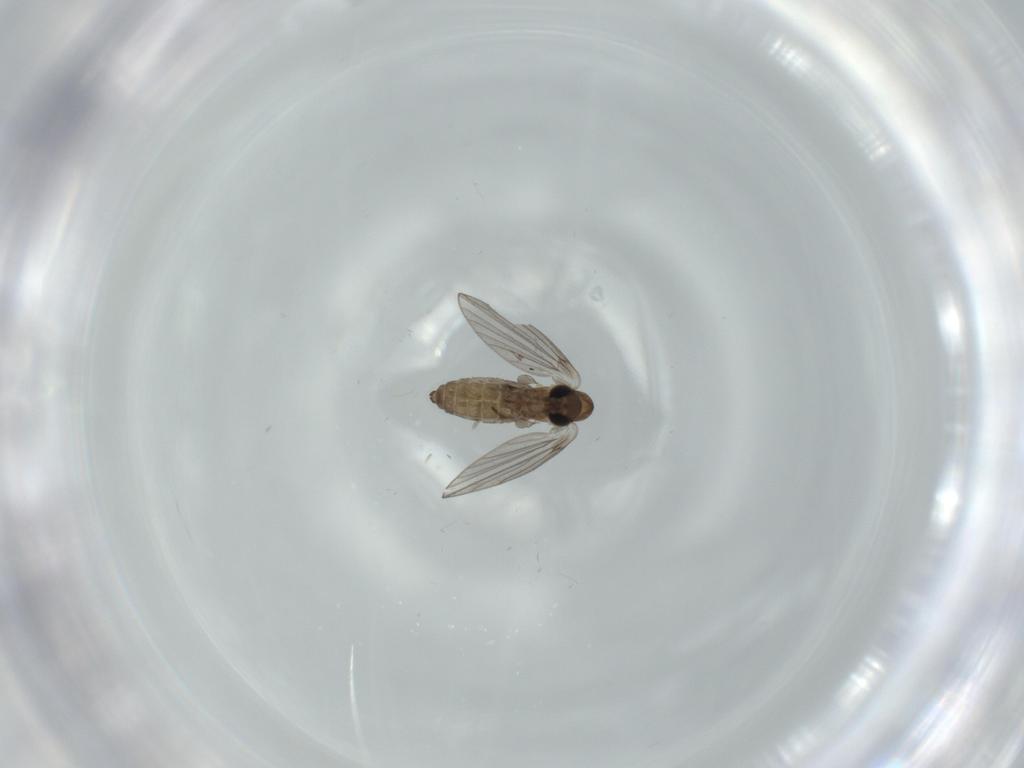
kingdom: Animalia
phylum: Arthropoda
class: Insecta
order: Diptera
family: Psychodidae
